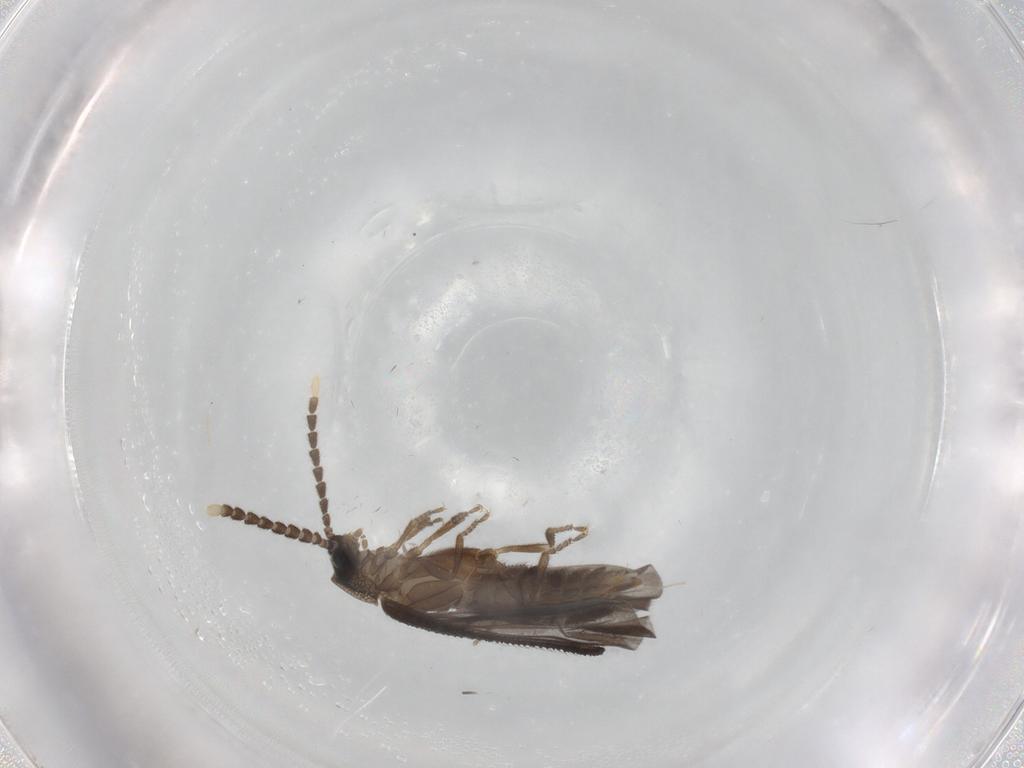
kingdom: Animalia
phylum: Arthropoda
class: Insecta
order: Coleoptera
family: Lycidae
